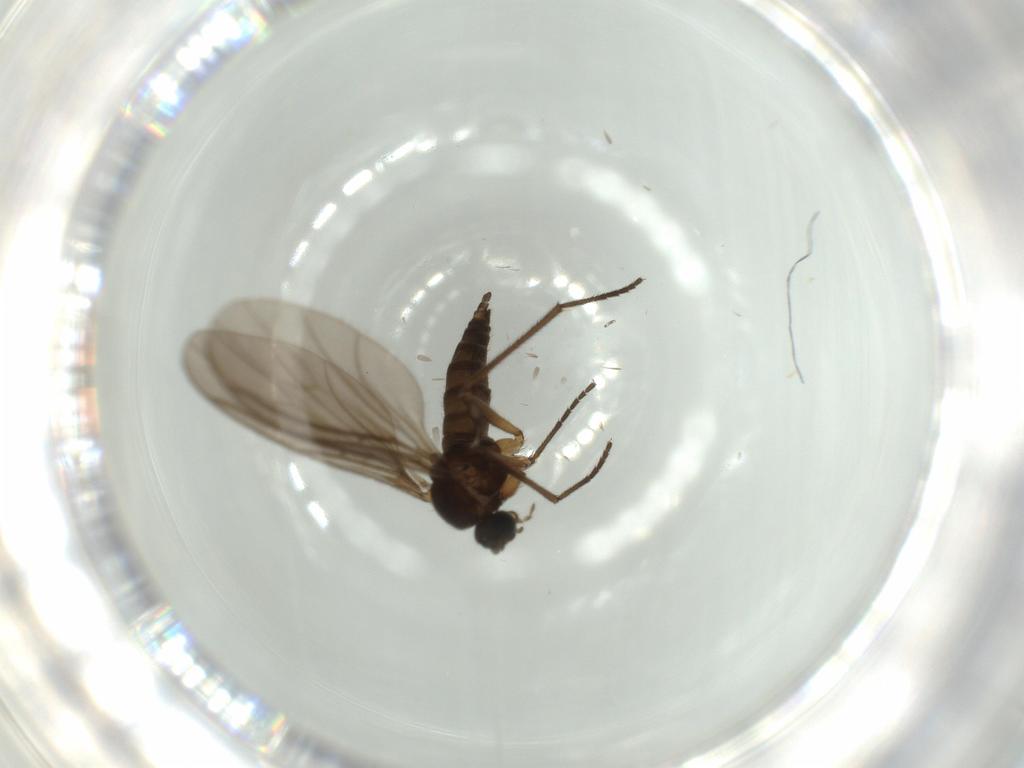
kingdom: Animalia
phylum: Arthropoda
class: Insecta
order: Diptera
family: Sciaridae
